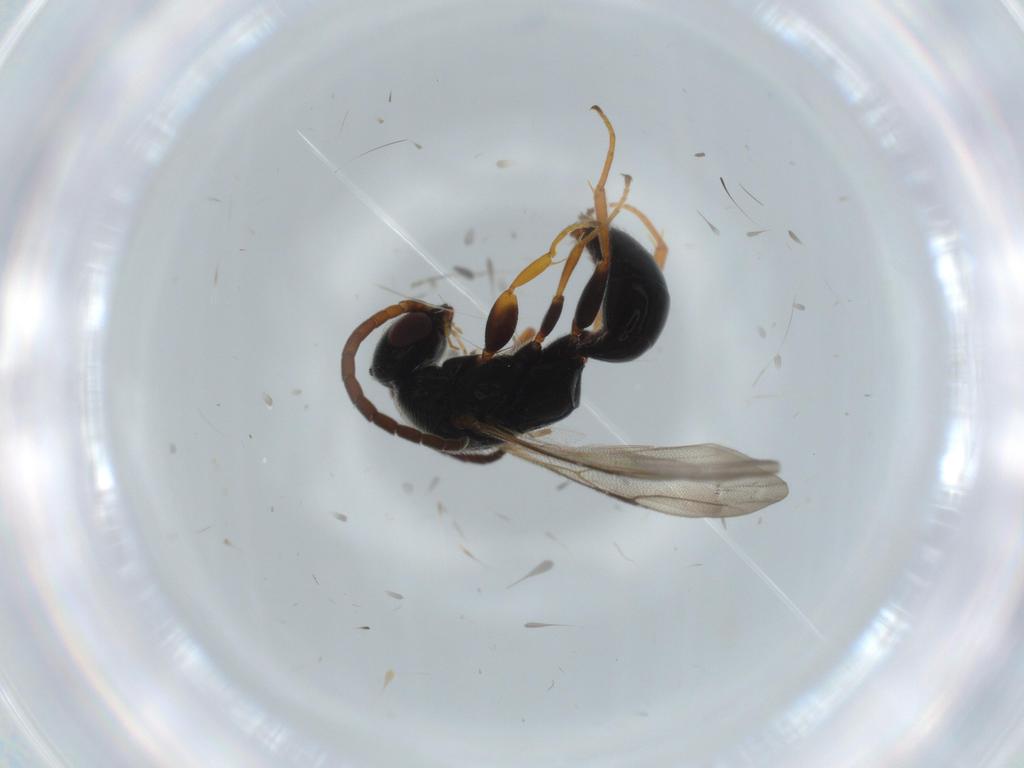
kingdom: Animalia
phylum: Arthropoda
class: Insecta
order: Hymenoptera
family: Bethylidae
